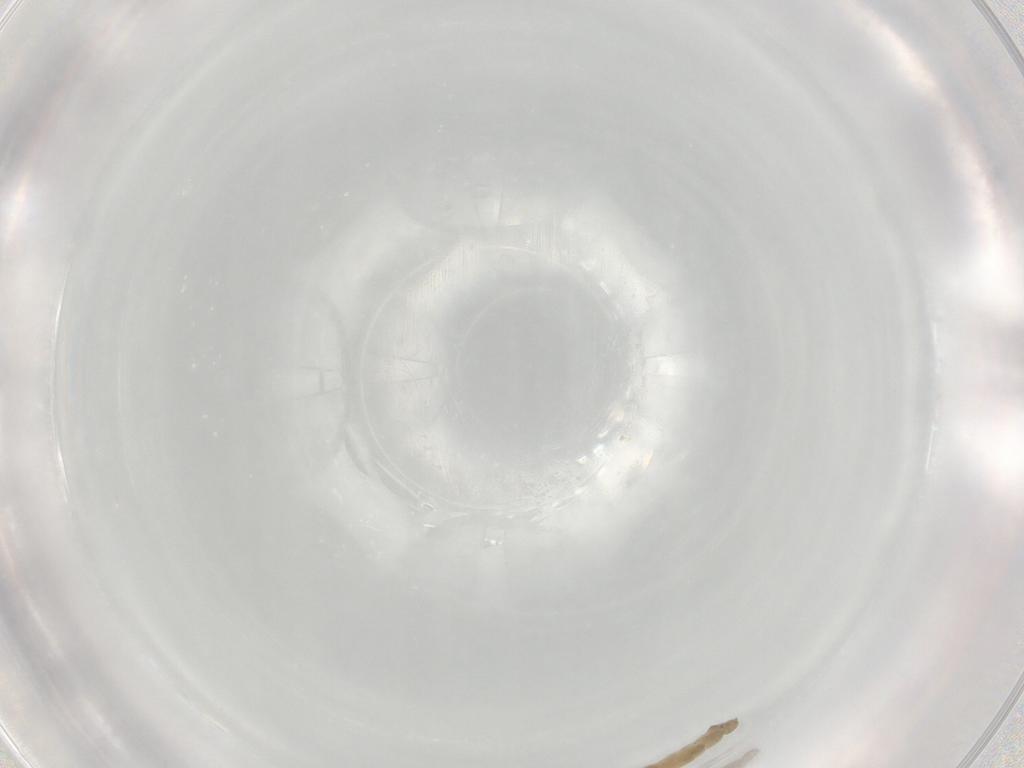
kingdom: Animalia
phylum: Arthropoda
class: Insecta
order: Diptera
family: Chironomidae
